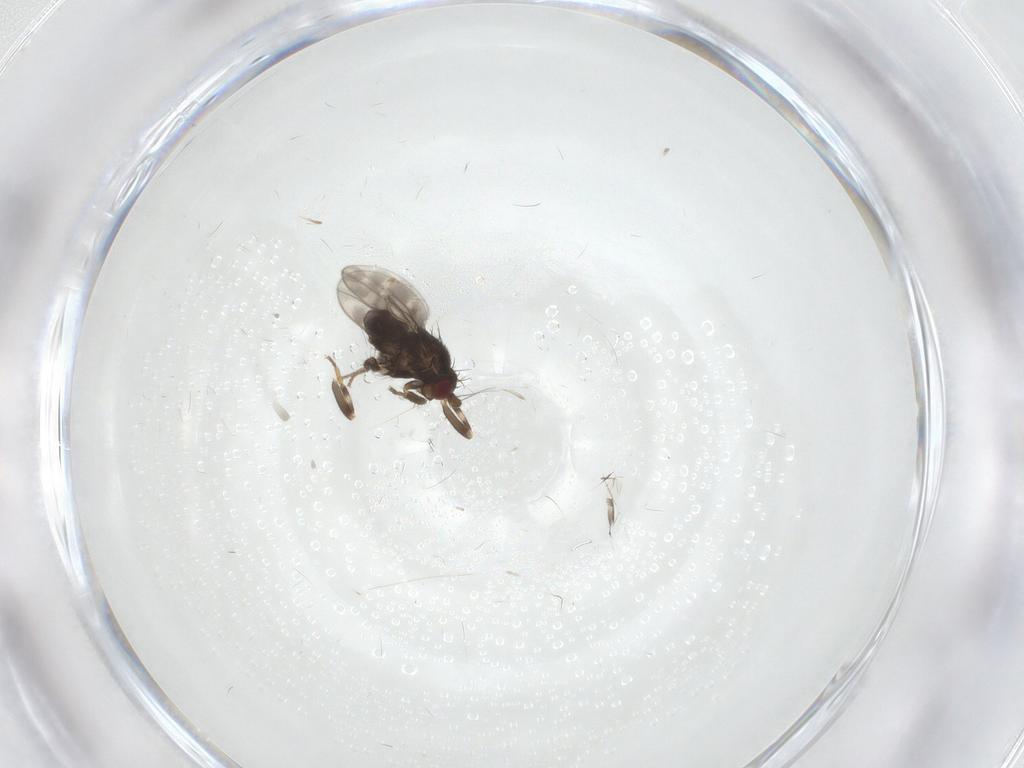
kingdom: Animalia
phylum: Arthropoda
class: Insecta
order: Diptera
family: Sphaeroceridae
